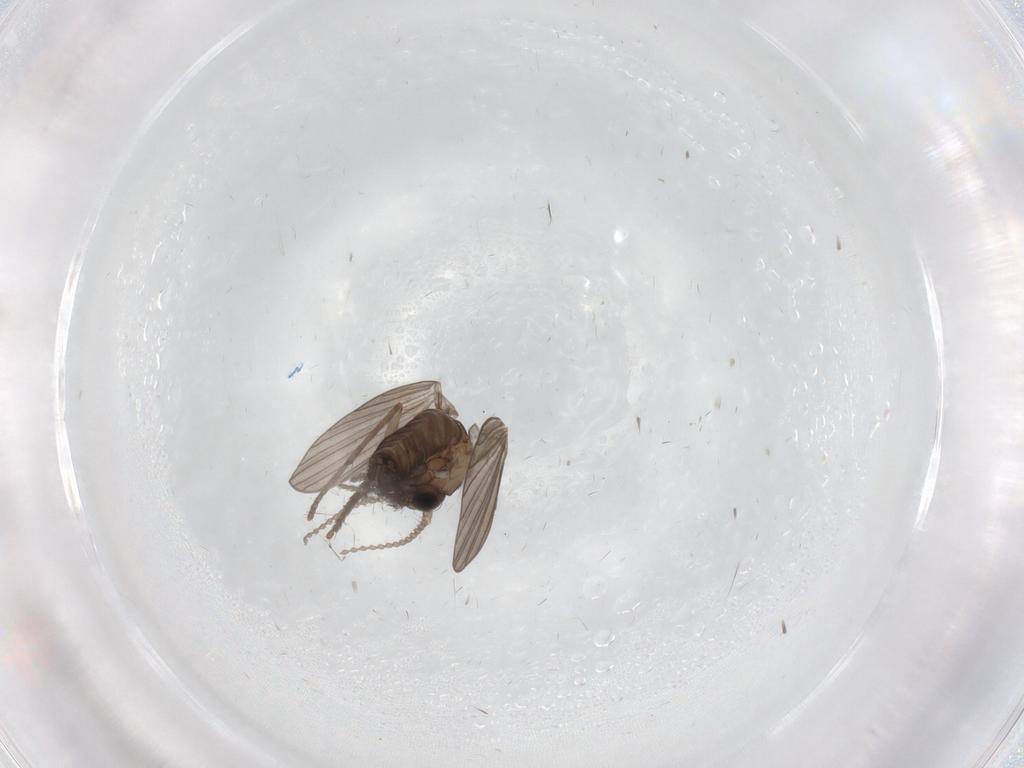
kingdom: Animalia
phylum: Arthropoda
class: Insecta
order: Diptera
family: Psychodidae
